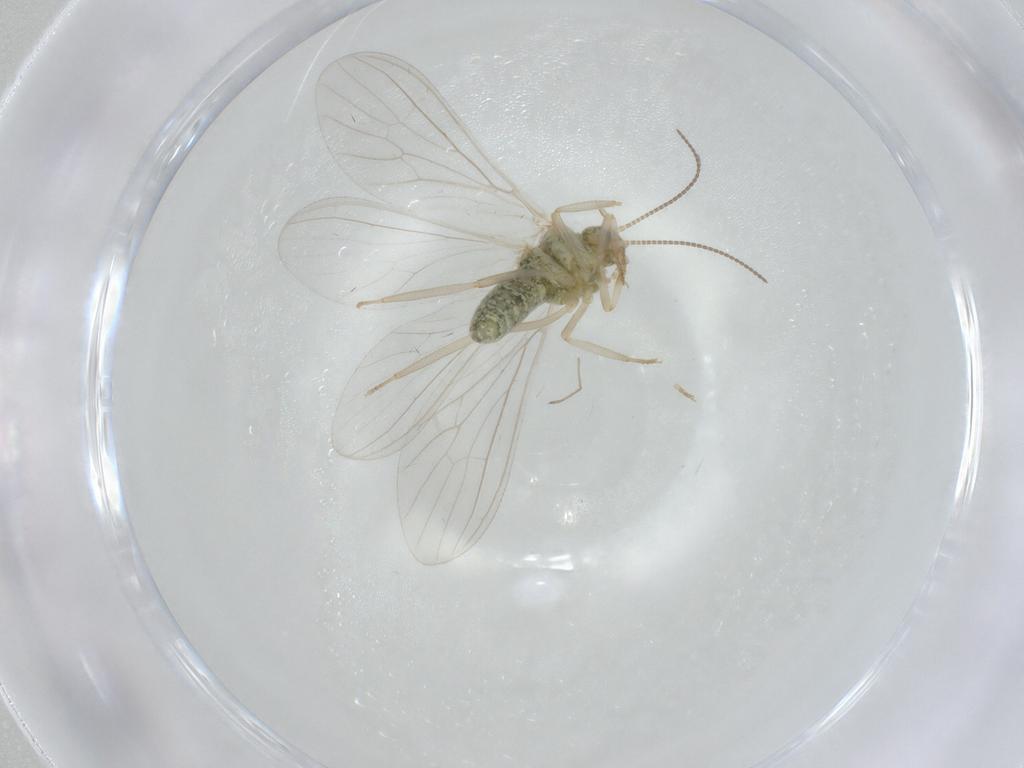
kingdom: Animalia
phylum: Arthropoda
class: Insecta
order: Neuroptera
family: Coniopterygidae
